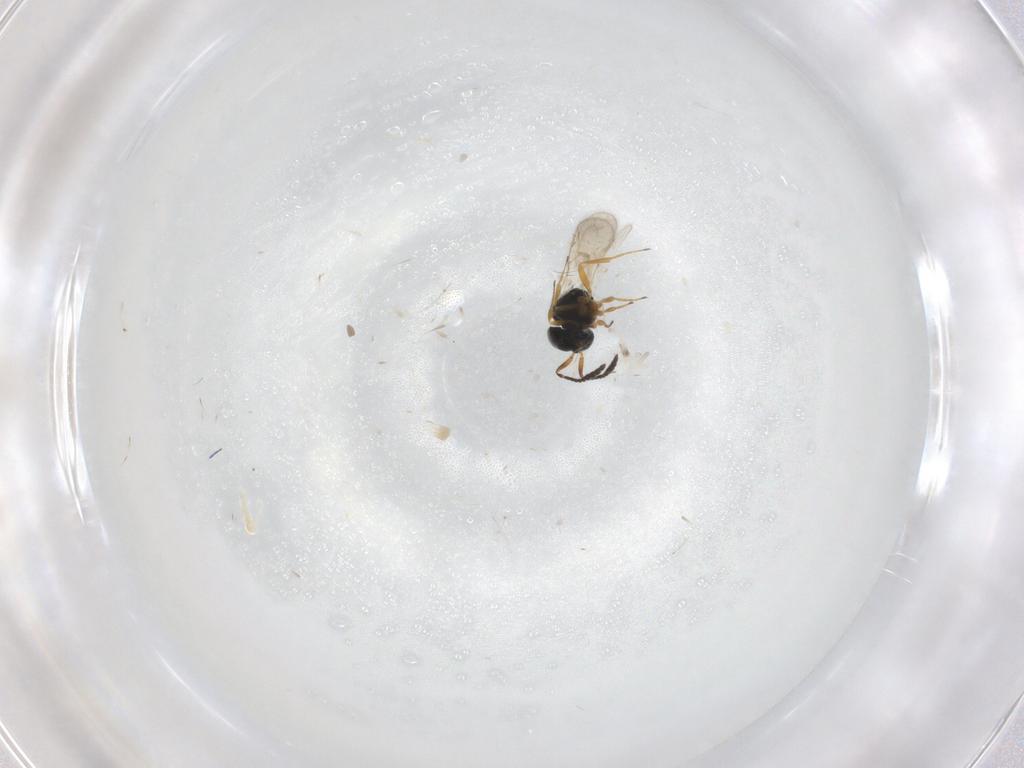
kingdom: Animalia
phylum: Arthropoda
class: Insecta
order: Hymenoptera
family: Scelionidae
